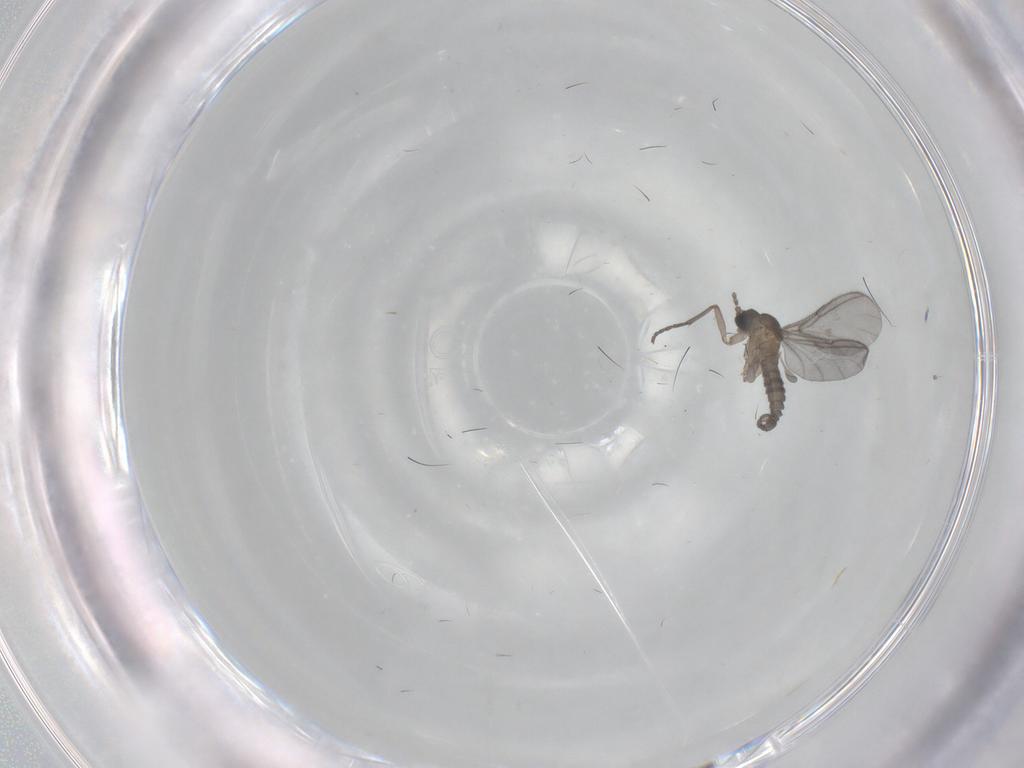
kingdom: Animalia
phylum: Arthropoda
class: Insecta
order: Diptera
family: Sciaridae
